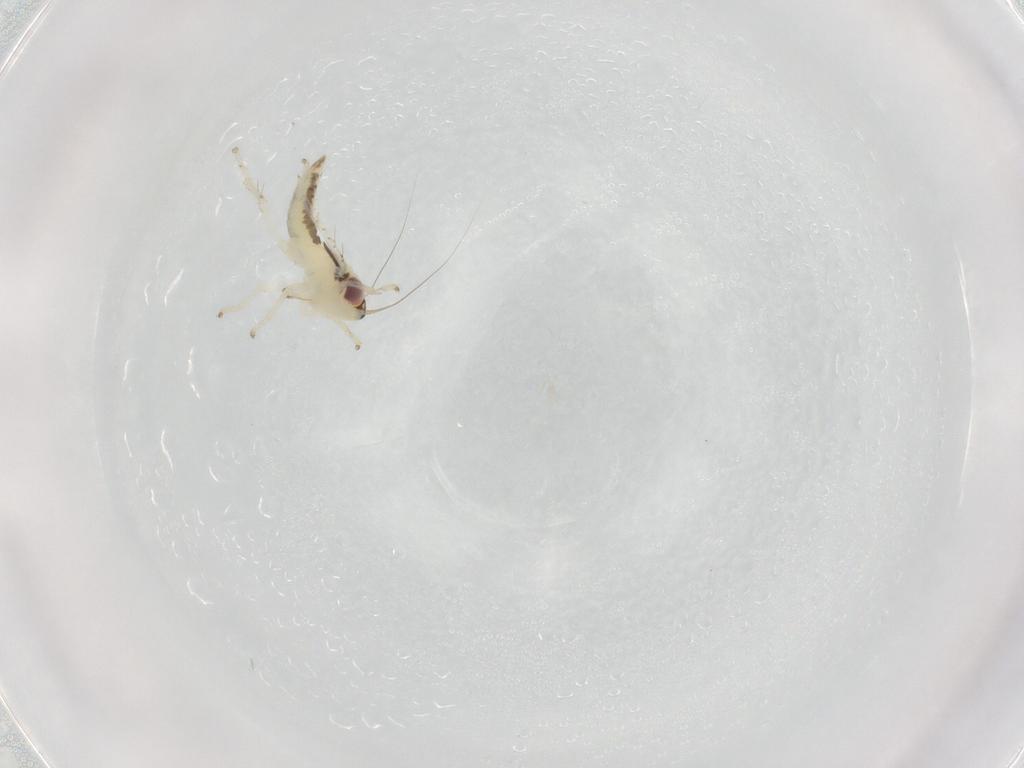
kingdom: Animalia
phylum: Arthropoda
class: Insecta
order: Hemiptera
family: Cicadellidae
